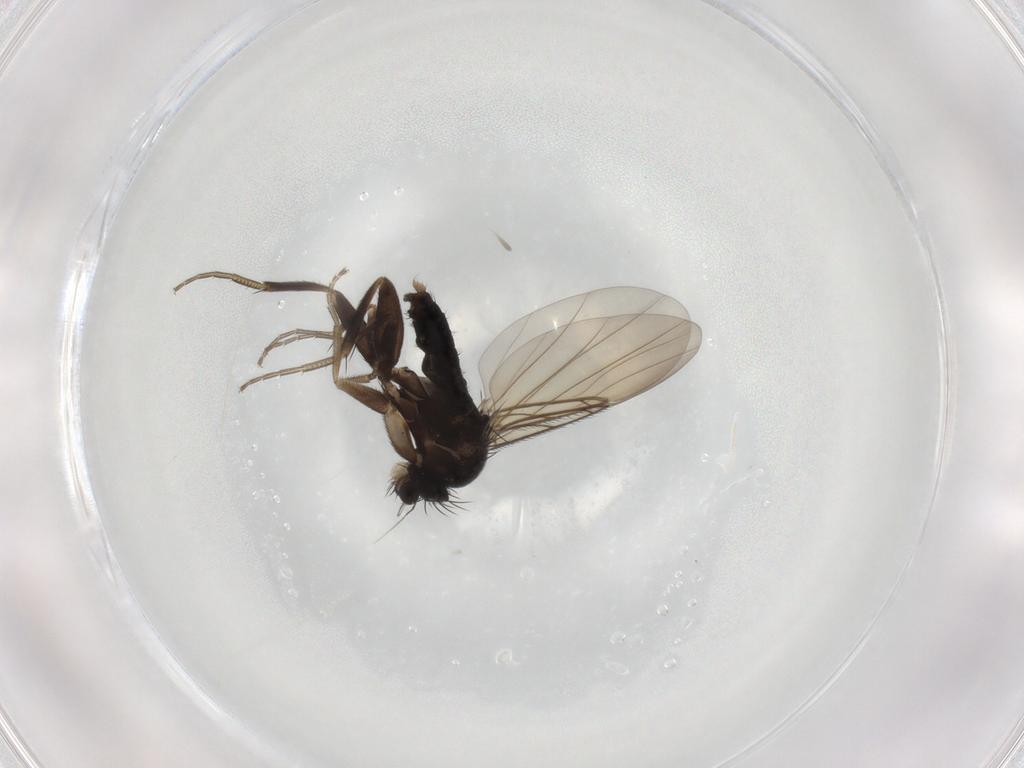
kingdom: Animalia
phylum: Arthropoda
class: Insecta
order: Diptera
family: Phoridae
